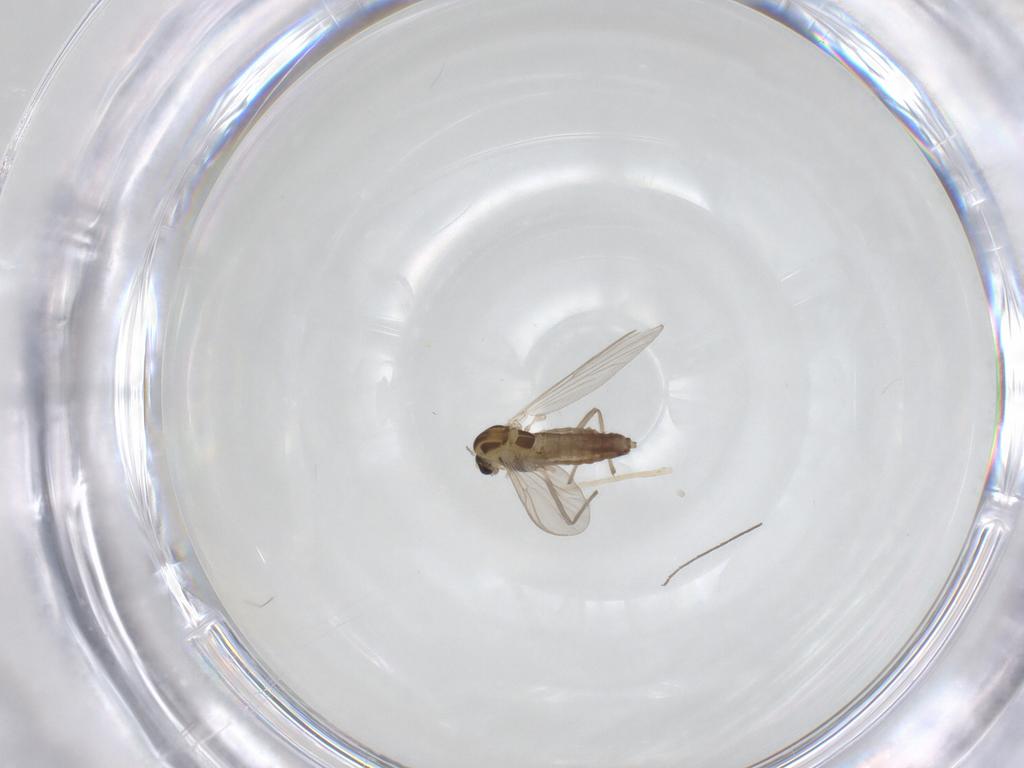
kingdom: Animalia
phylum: Arthropoda
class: Insecta
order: Diptera
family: Chironomidae
